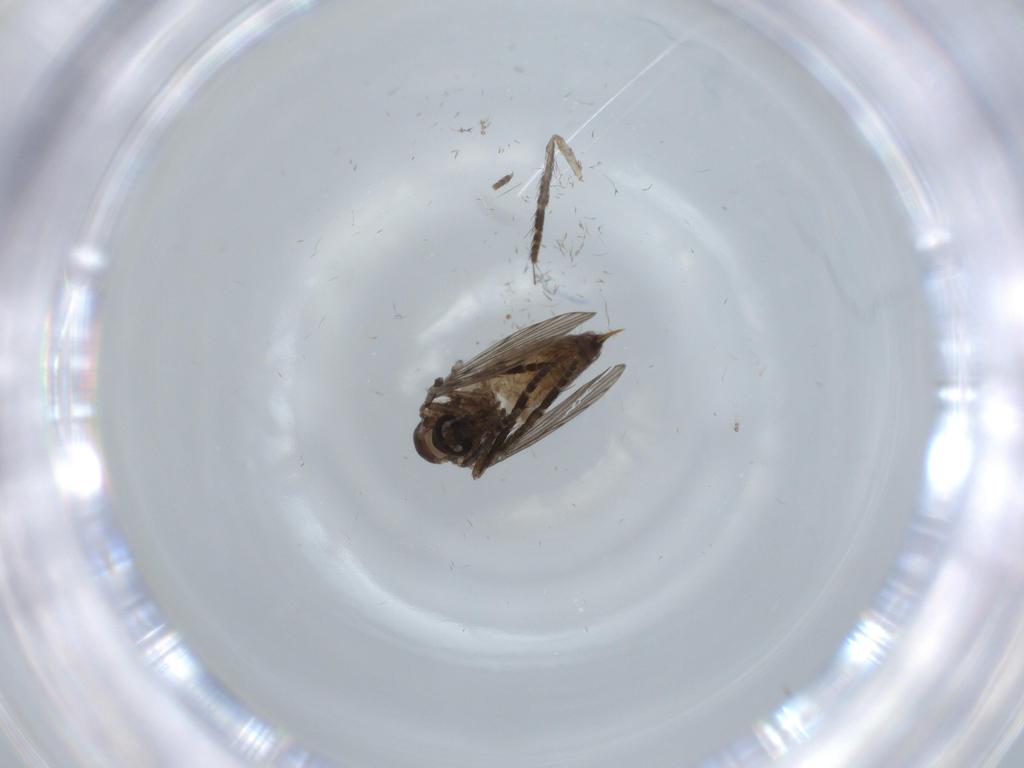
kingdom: Animalia
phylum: Arthropoda
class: Insecta
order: Diptera
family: Psychodidae
